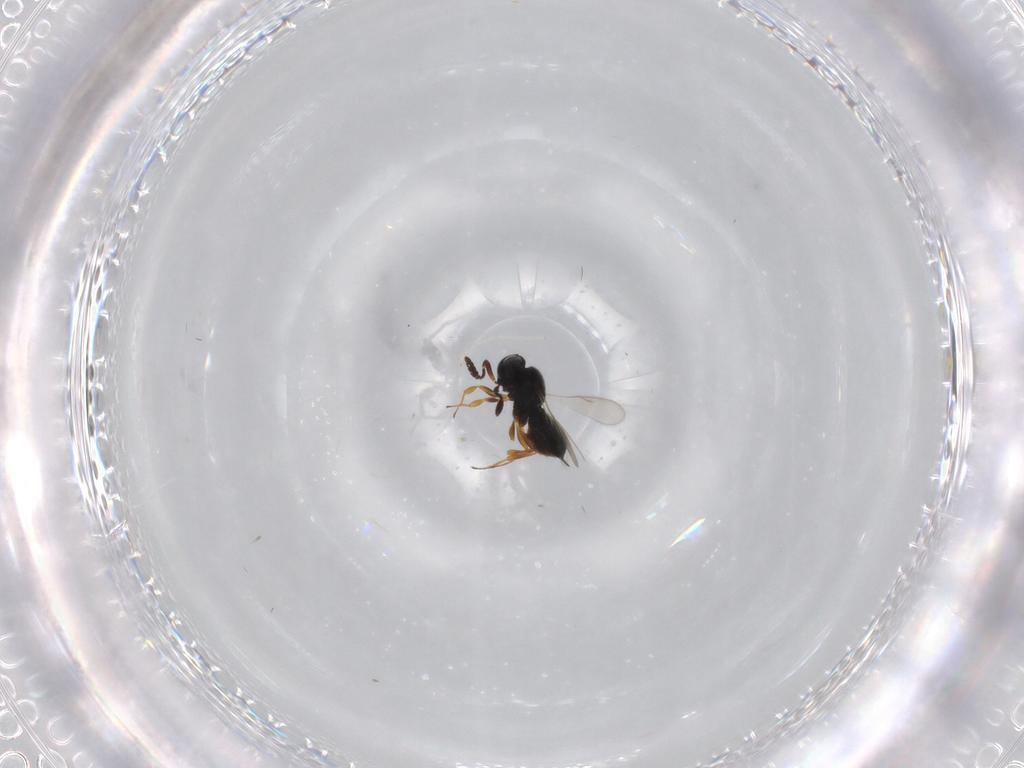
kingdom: Animalia
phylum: Arthropoda
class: Insecta
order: Hymenoptera
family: Scelionidae
